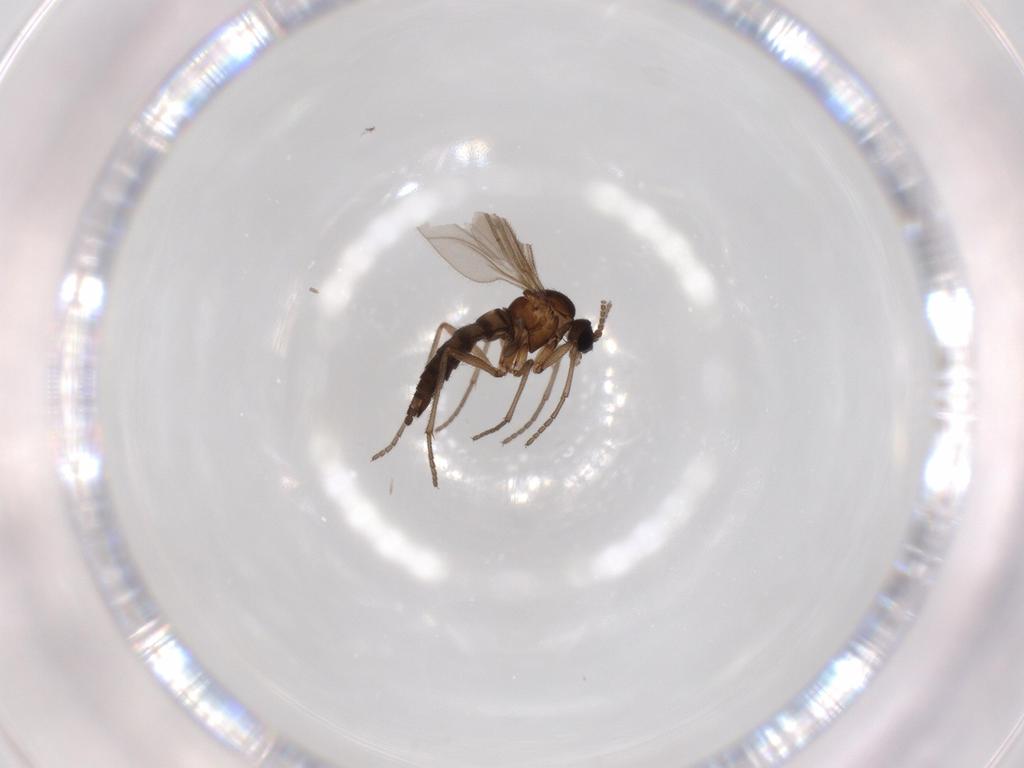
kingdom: Animalia
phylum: Arthropoda
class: Insecta
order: Diptera
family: Sciaridae
